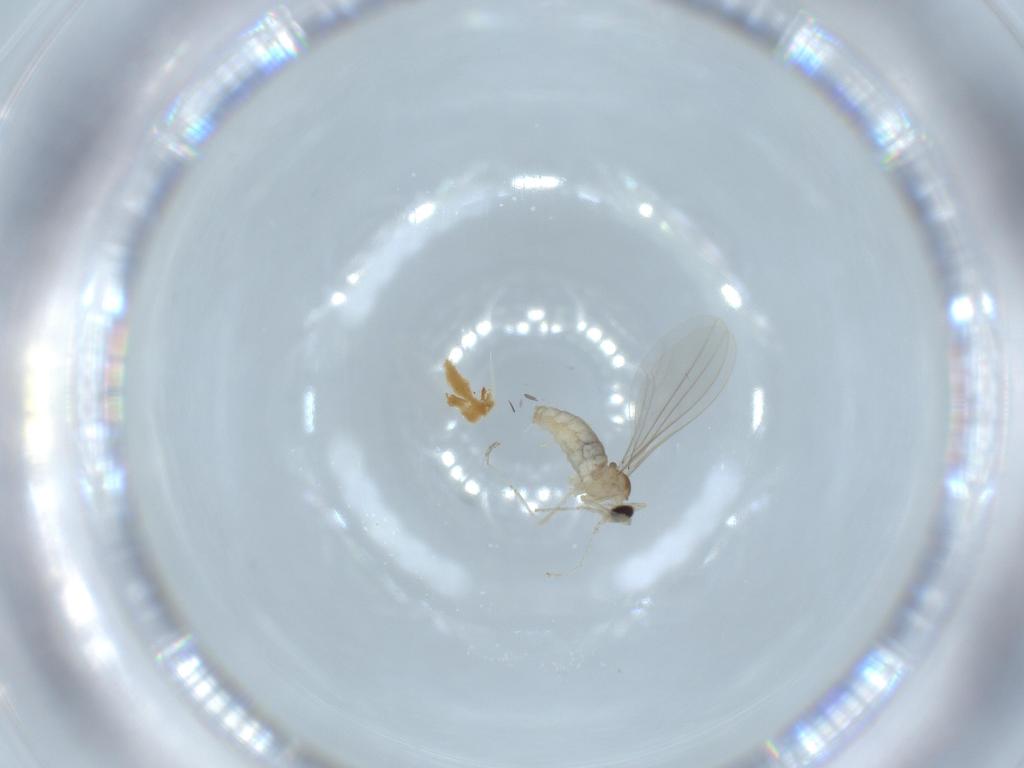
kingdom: Animalia
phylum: Arthropoda
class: Insecta
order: Diptera
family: Cecidomyiidae
